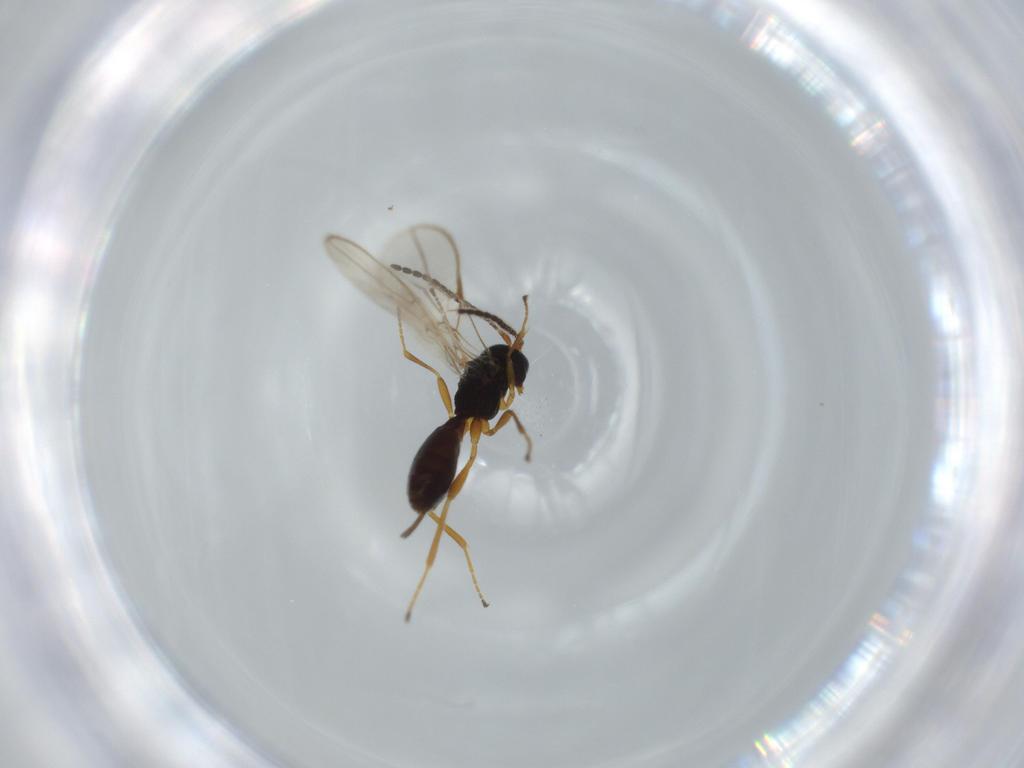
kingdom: Animalia
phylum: Arthropoda
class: Insecta
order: Hymenoptera
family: Braconidae
